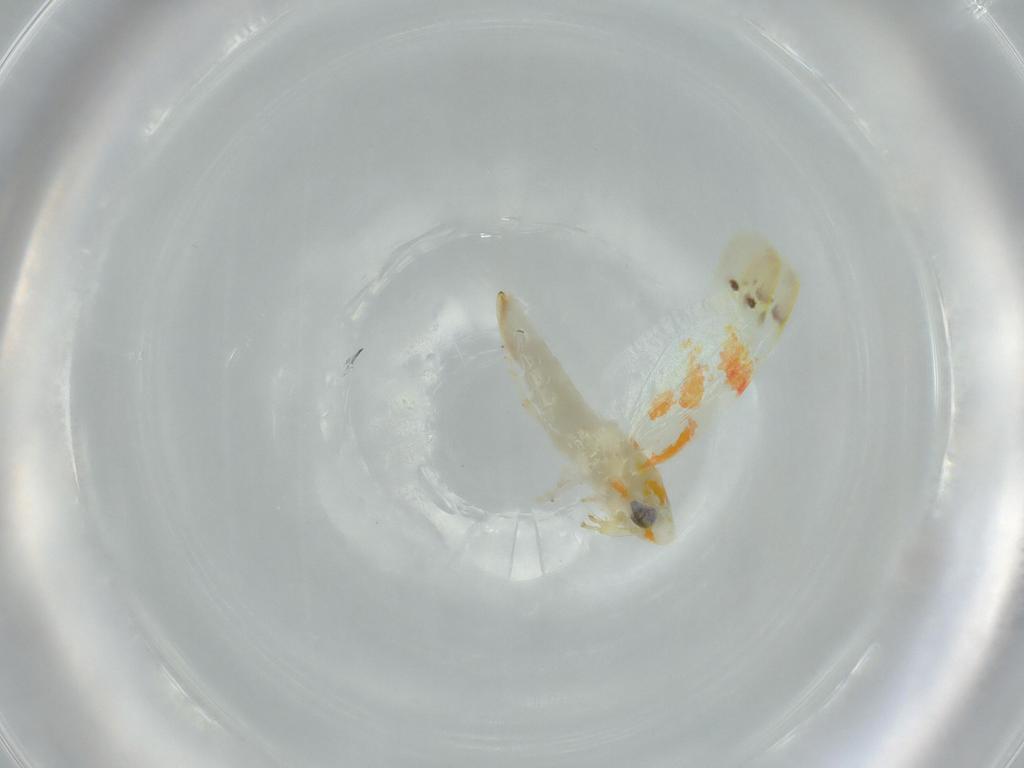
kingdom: Animalia
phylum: Arthropoda
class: Insecta
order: Hemiptera
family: Cicadellidae
